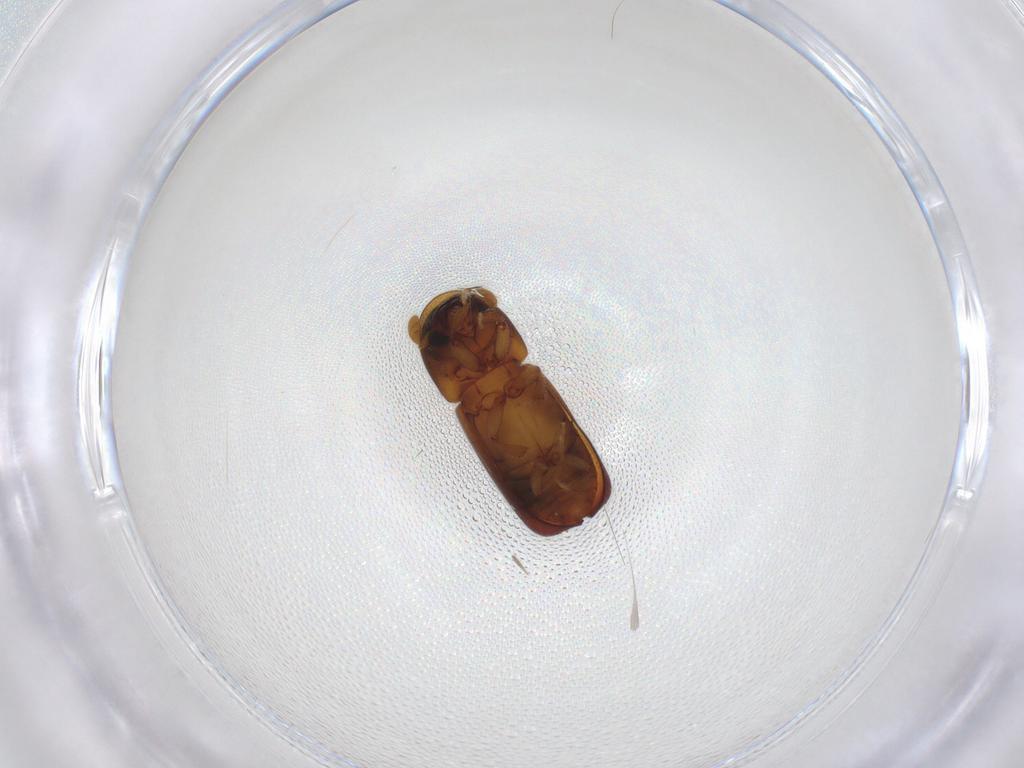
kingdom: Animalia
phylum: Arthropoda
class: Insecta
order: Coleoptera
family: Curculionidae
